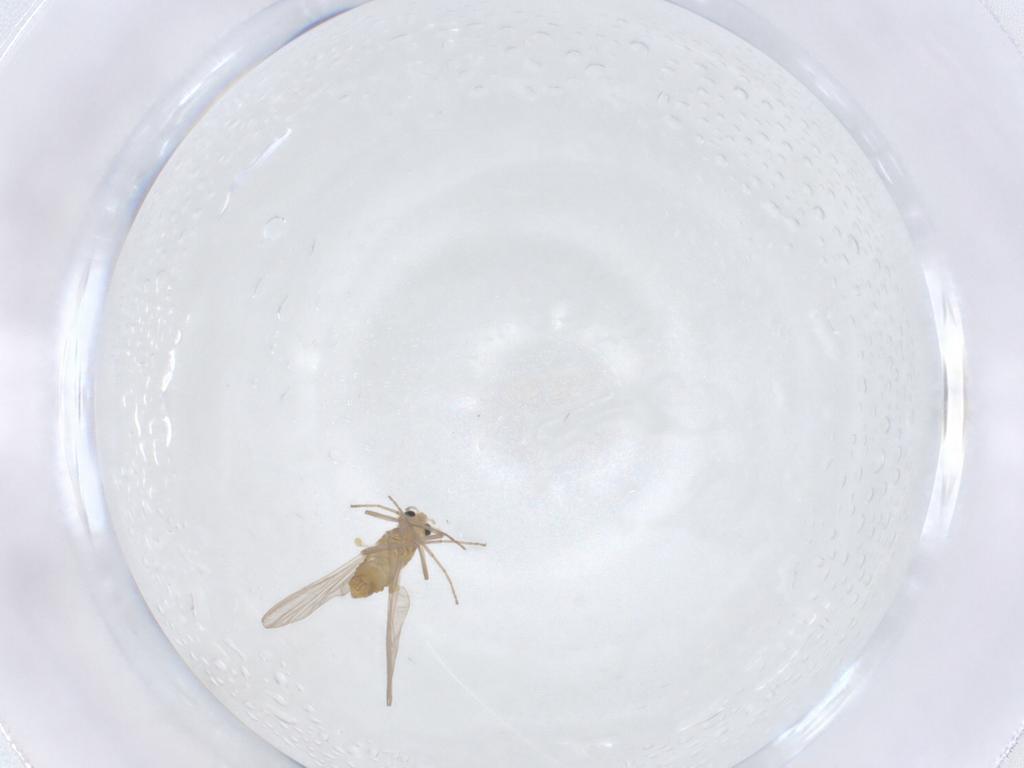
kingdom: Animalia
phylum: Arthropoda
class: Insecta
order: Diptera
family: Chironomidae
